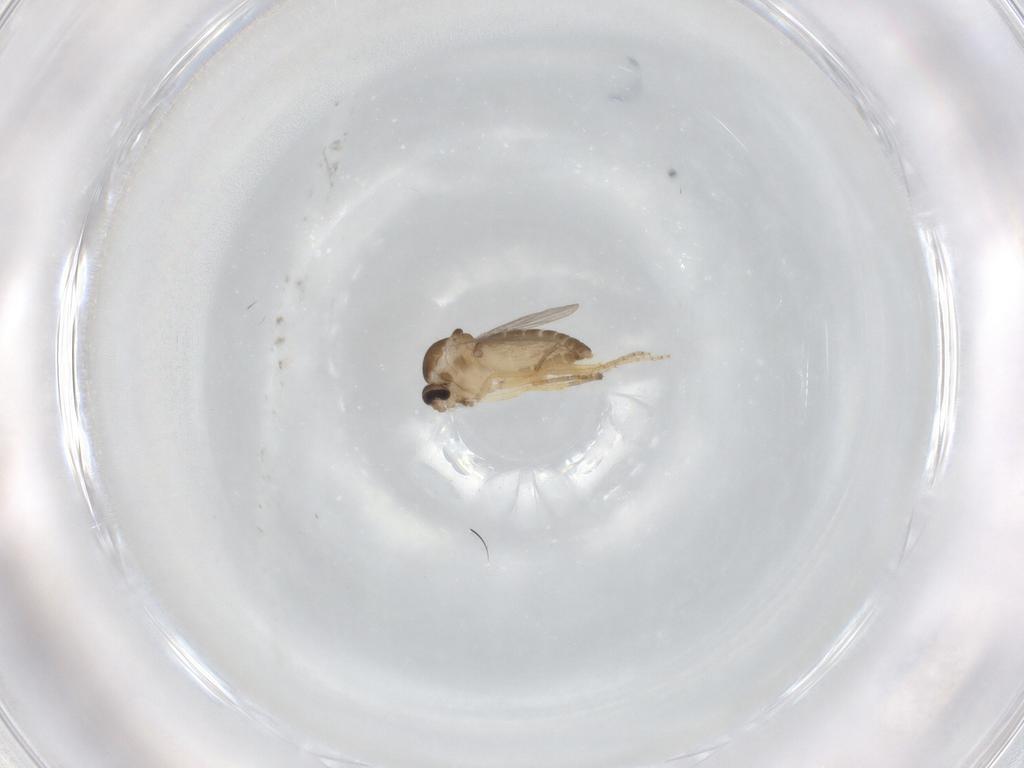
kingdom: Animalia
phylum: Arthropoda
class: Insecta
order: Diptera
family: Ceratopogonidae
